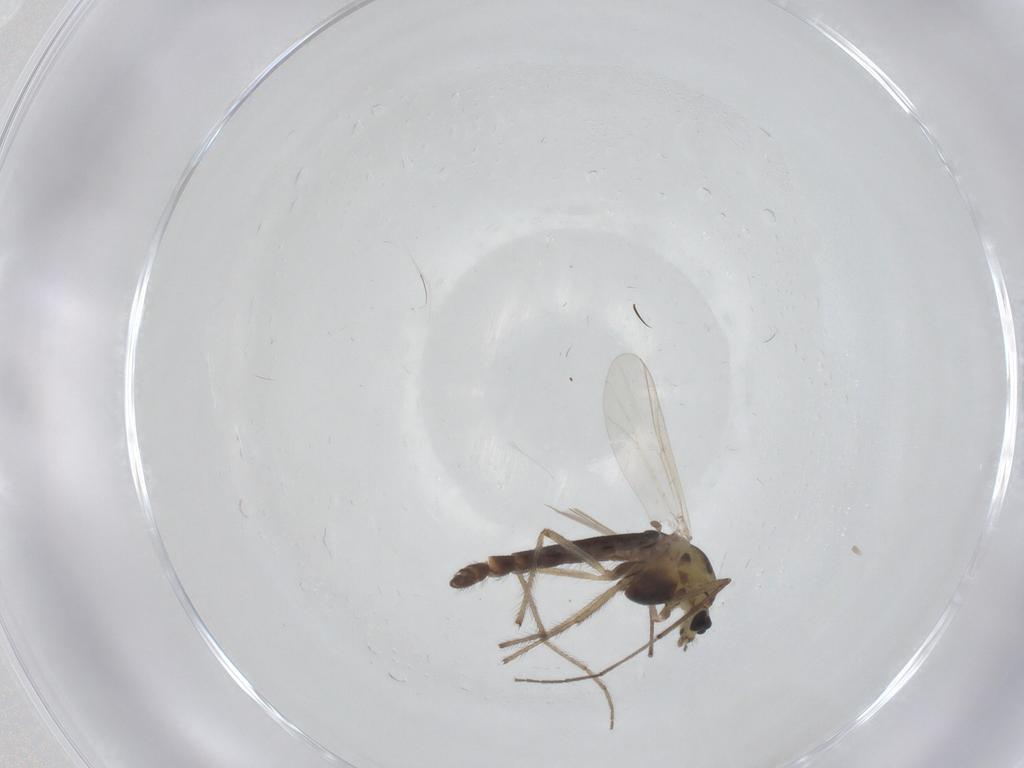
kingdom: Animalia
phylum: Arthropoda
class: Insecta
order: Diptera
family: Chironomidae
